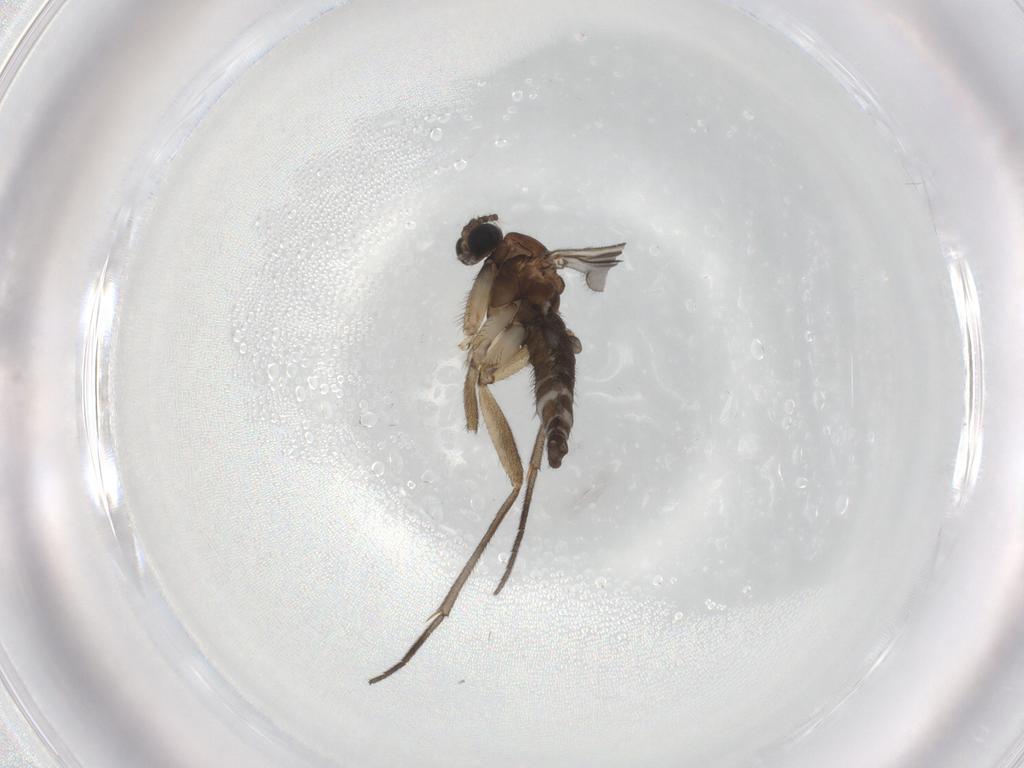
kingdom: Animalia
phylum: Arthropoda
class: Insecta
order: Diptera
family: Sciaridae
